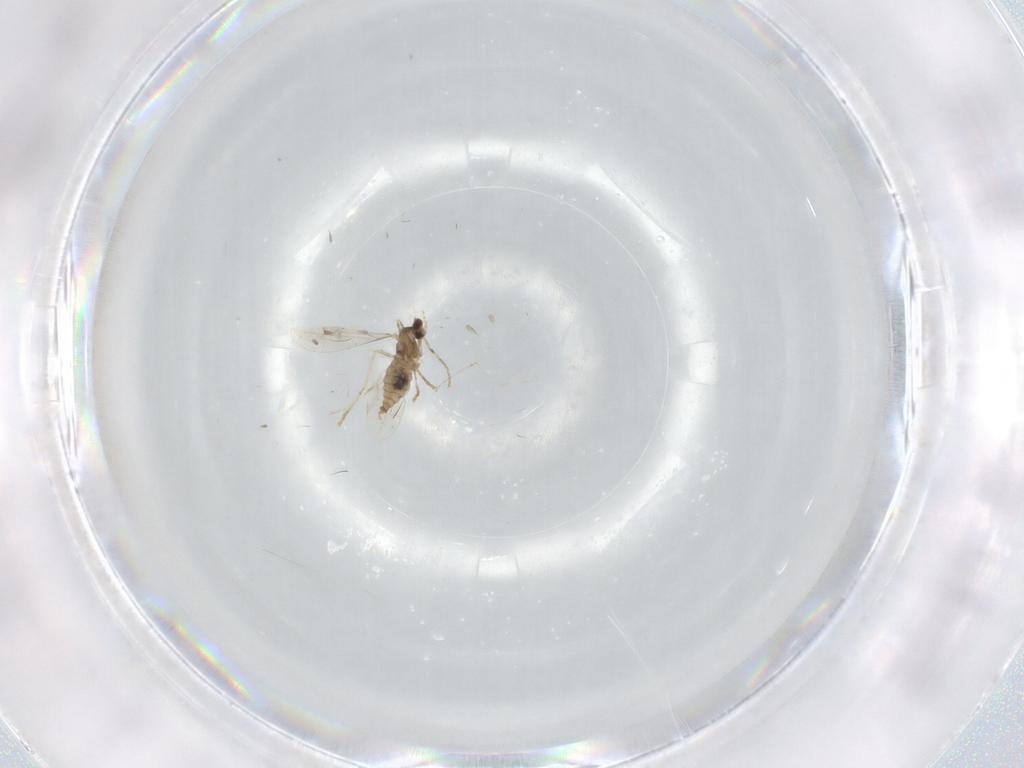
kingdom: Animalia
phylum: Arthropoda
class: Insecta
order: Diptera
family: Cecidomyiidae
